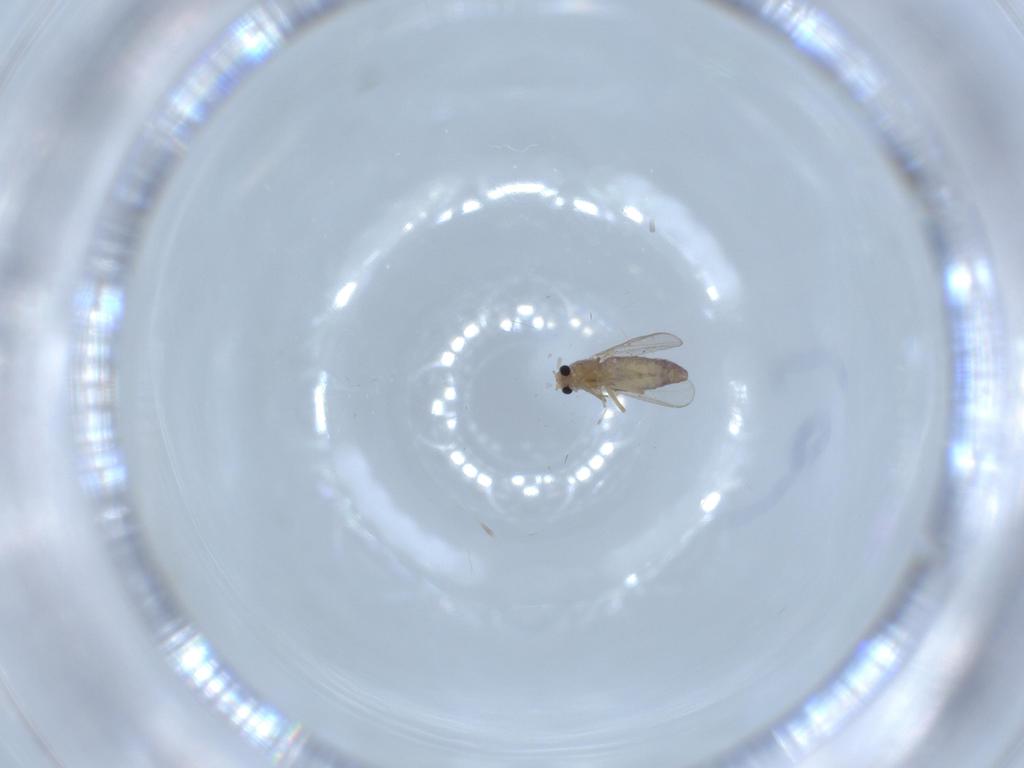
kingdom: Animalia
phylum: Arthropoda
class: Insecta
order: Diptera
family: Chironomidae
